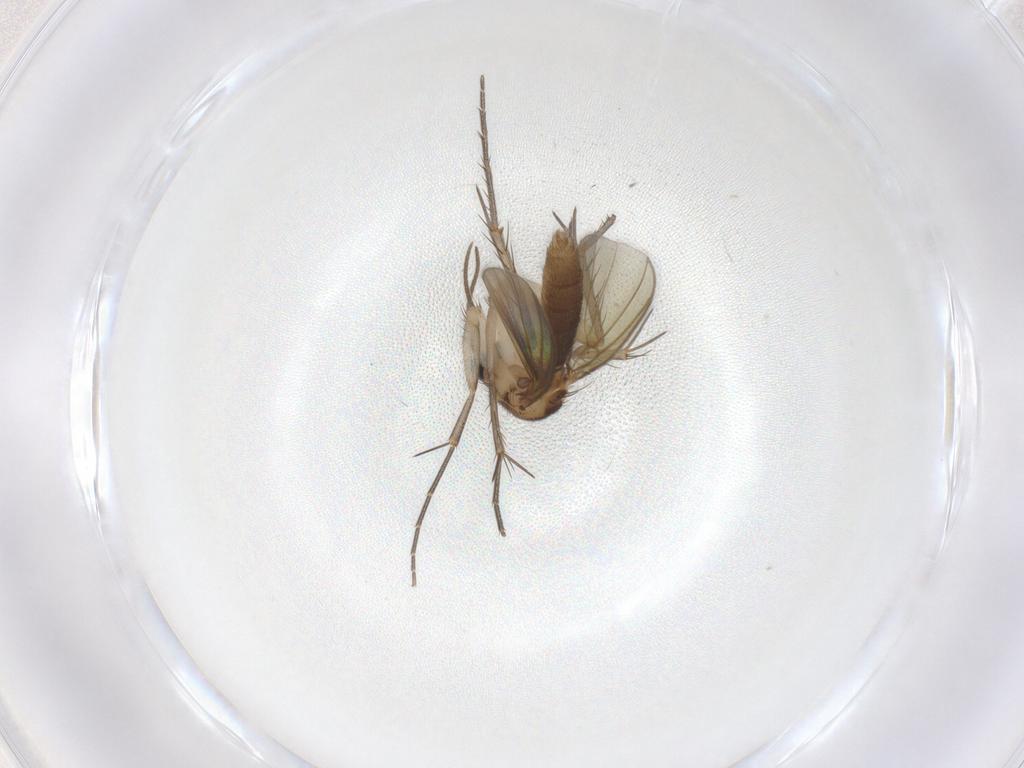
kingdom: Animalia
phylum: Arthropoda
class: Insecta
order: Diptera
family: Mycetophilidae
